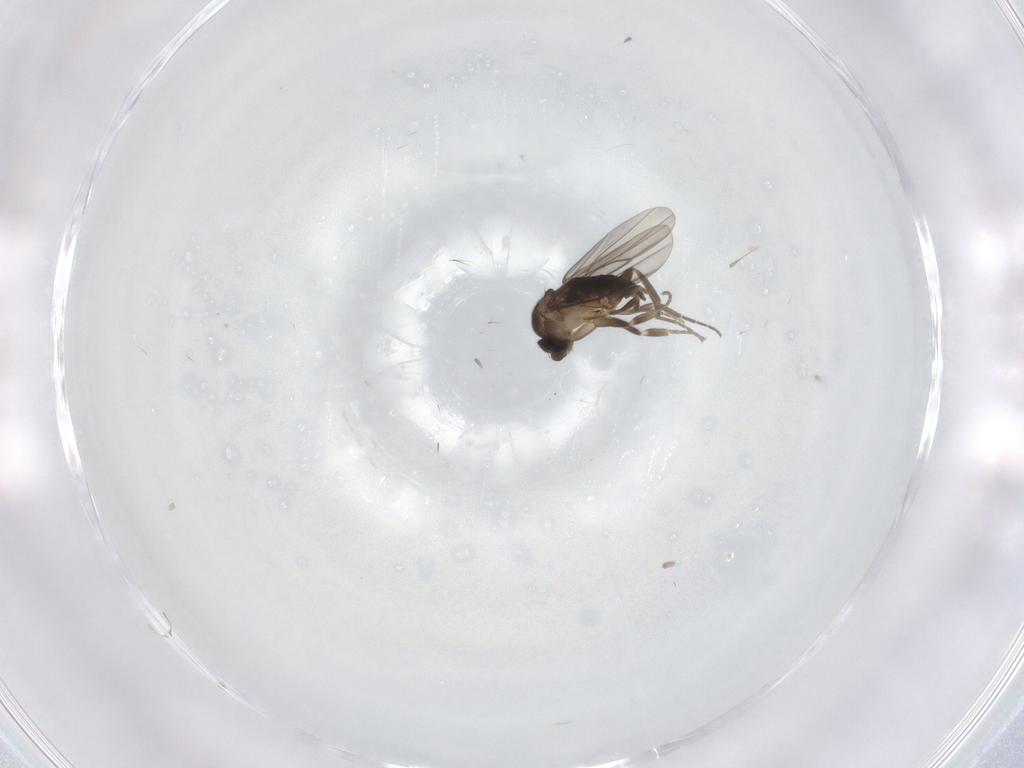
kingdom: Animalia
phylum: Arthropoda
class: Insecta
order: Diptera
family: Phoridae
